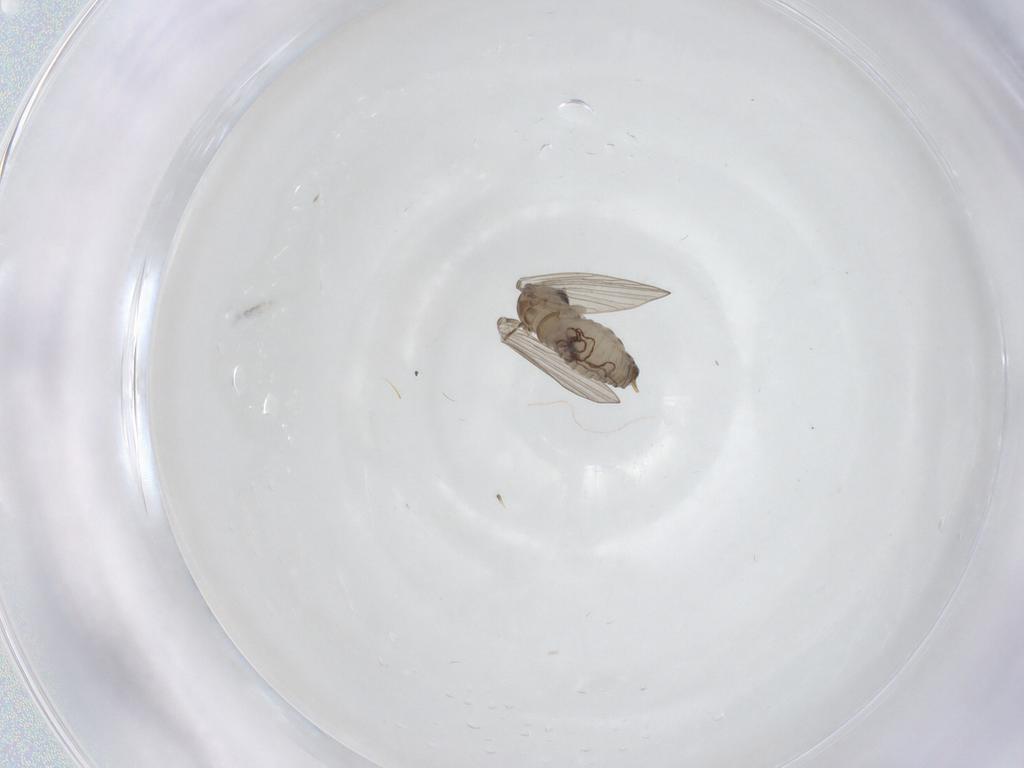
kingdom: Animalia
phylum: Arthropoda
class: Insecta
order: Diptera
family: Psychodidae
